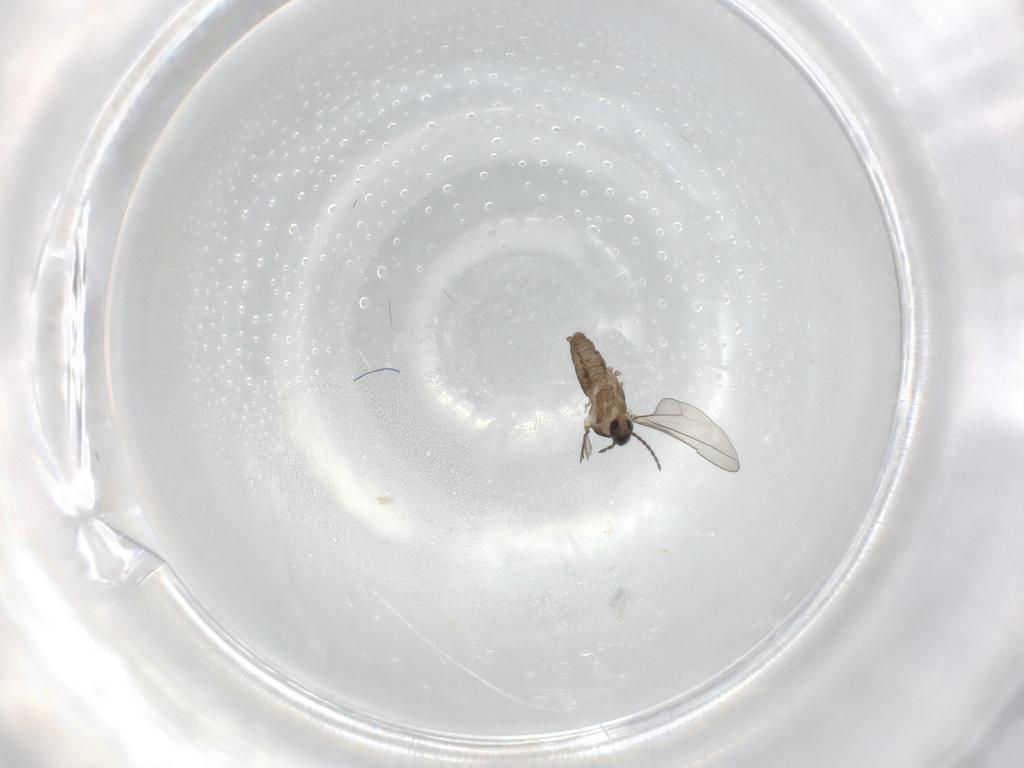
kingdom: Animalia
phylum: Arthropoda
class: Insecta
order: Diptera
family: Cecidomyiidae
